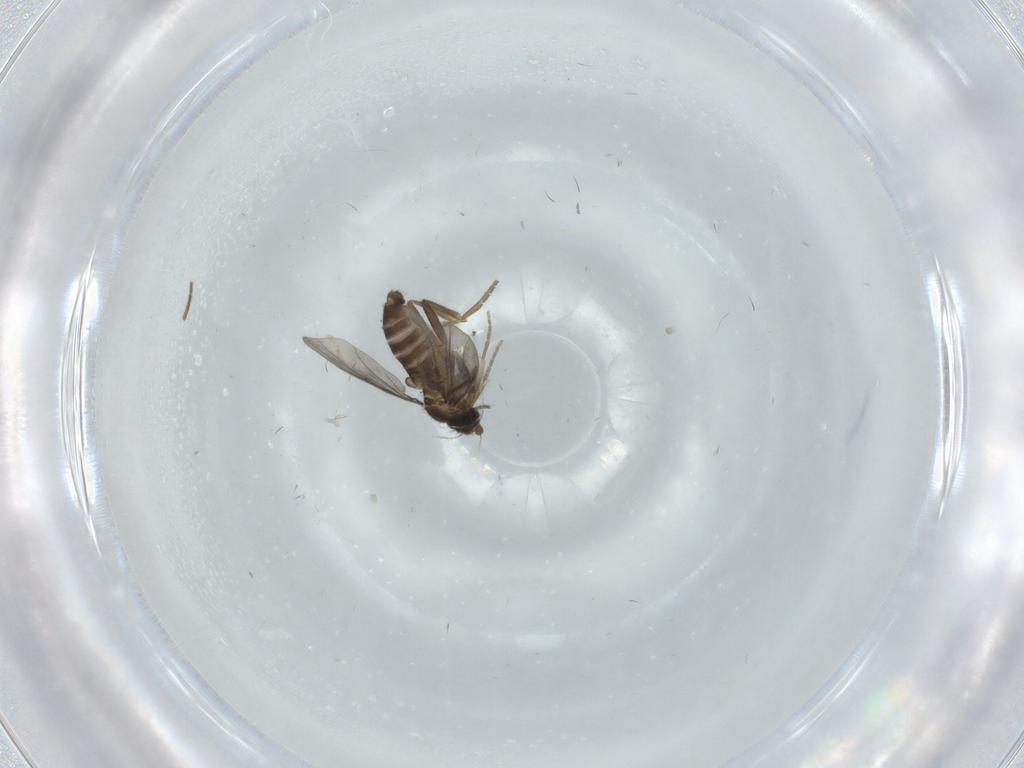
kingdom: Animalia
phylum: Arthropoda
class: Insecta
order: Diptera
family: Phoridae
